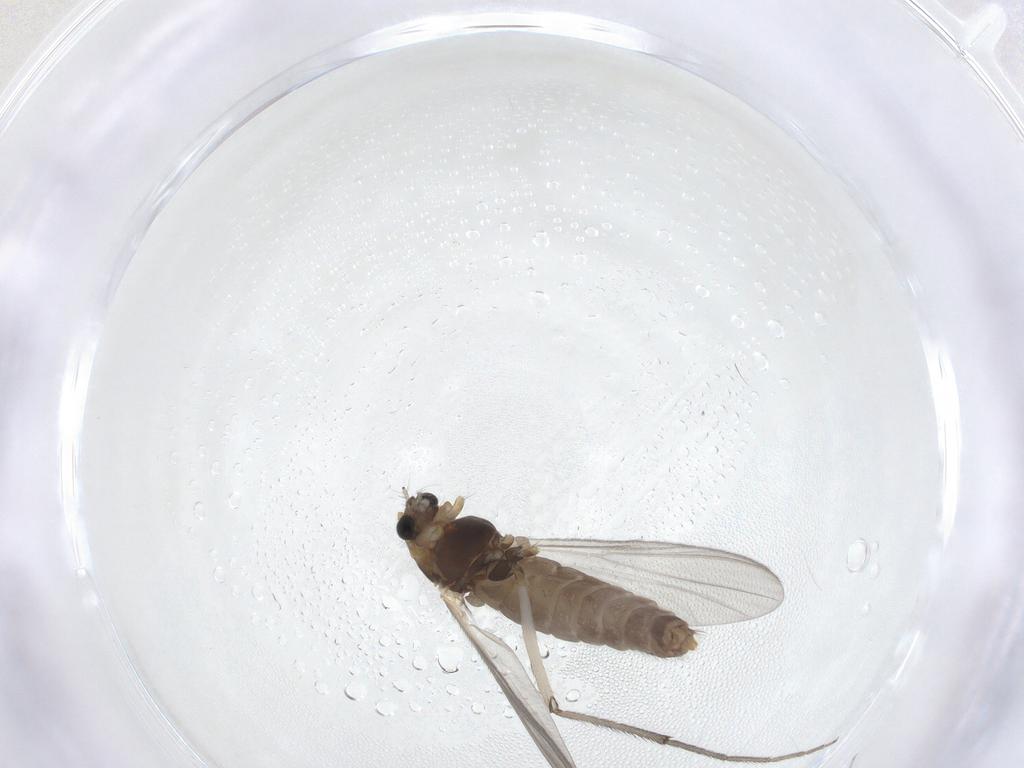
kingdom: Animalia
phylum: Arthropoda
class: Insecta
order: Diptera
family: Chironomidae
